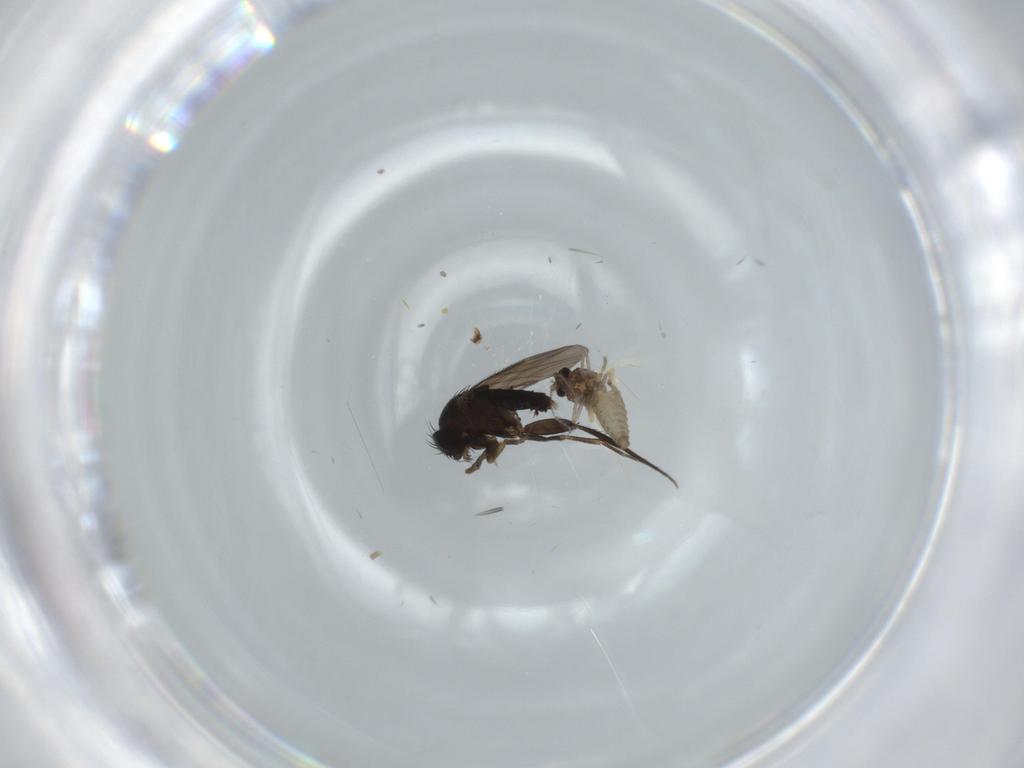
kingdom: Animalia
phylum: Arthropoda
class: Insecta
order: Diptera
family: Phoridae
